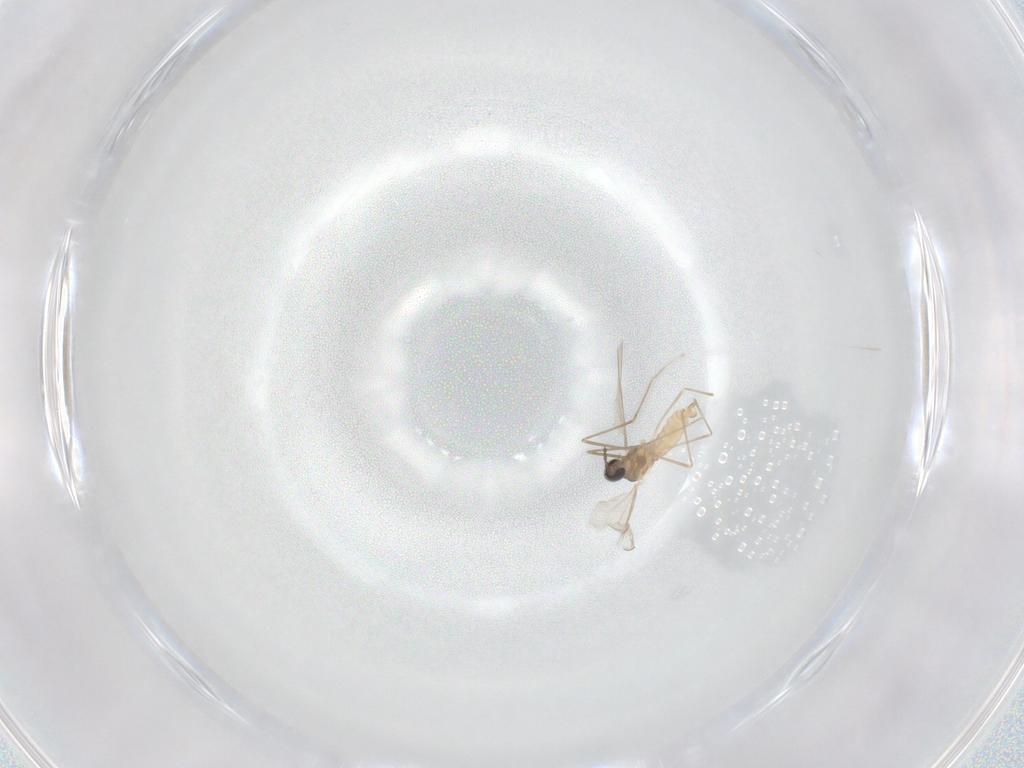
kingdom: Animalia
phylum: Arthropoda
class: Insecta
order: Diptera
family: Cecidomyiidae
